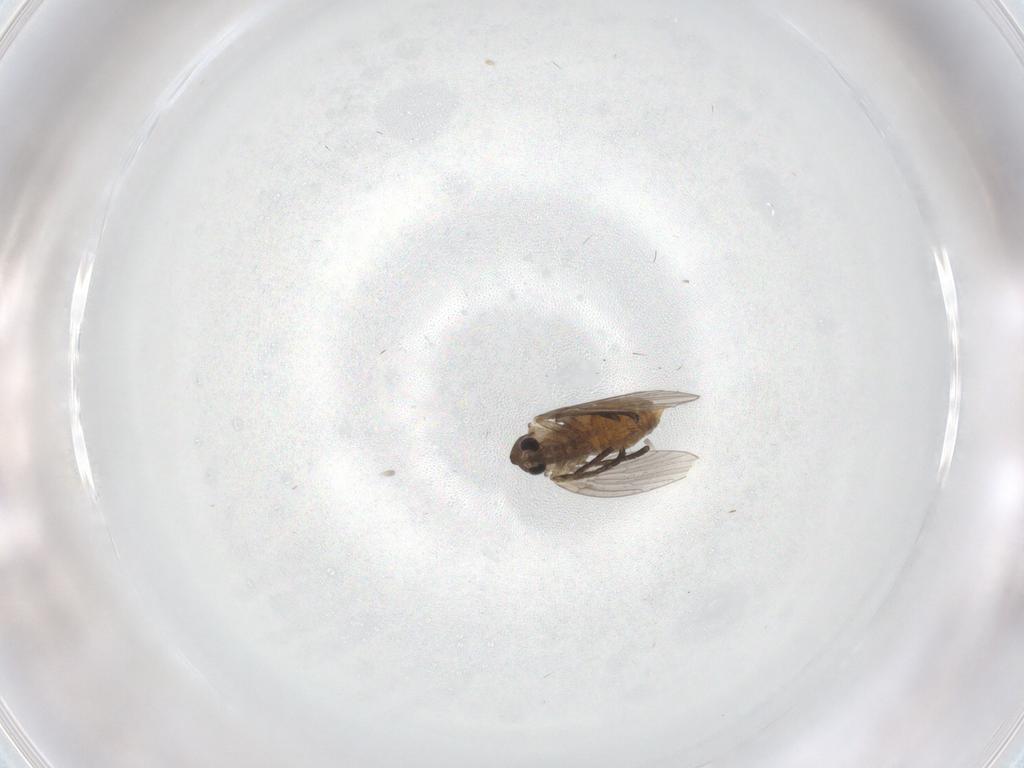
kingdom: Animalia
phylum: Arthropoda
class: Insecta
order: Diptera
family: Sciaridae
